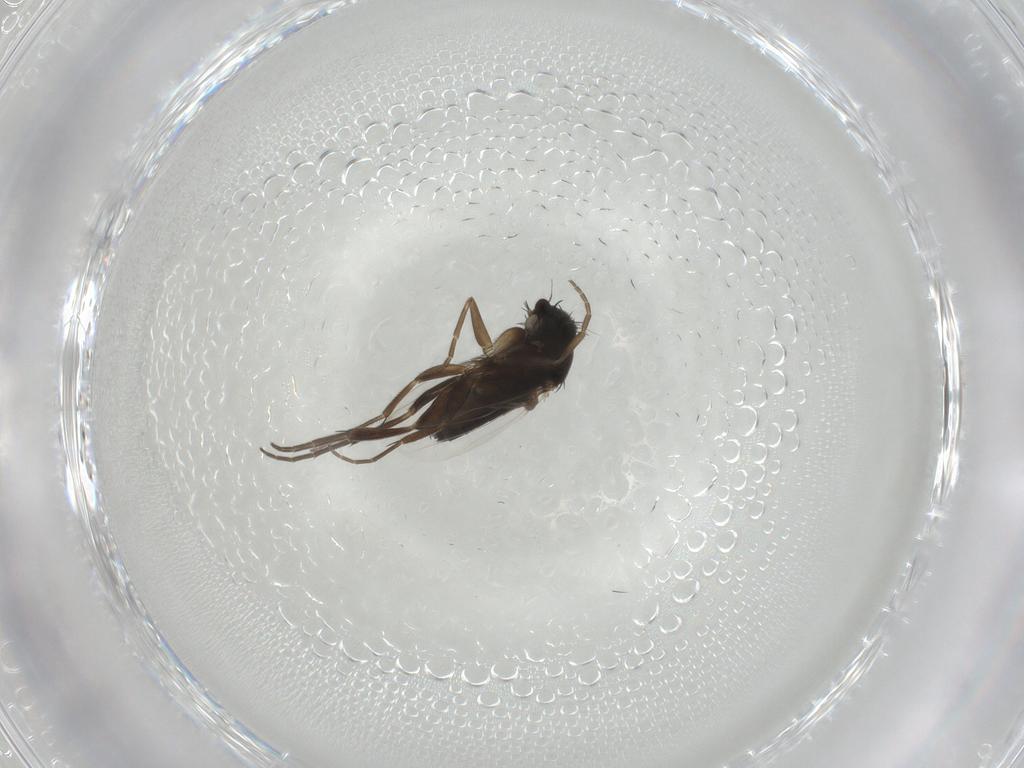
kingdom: Animalia
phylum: Arthropoda
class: Insecta
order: Diptera
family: Phoridae
